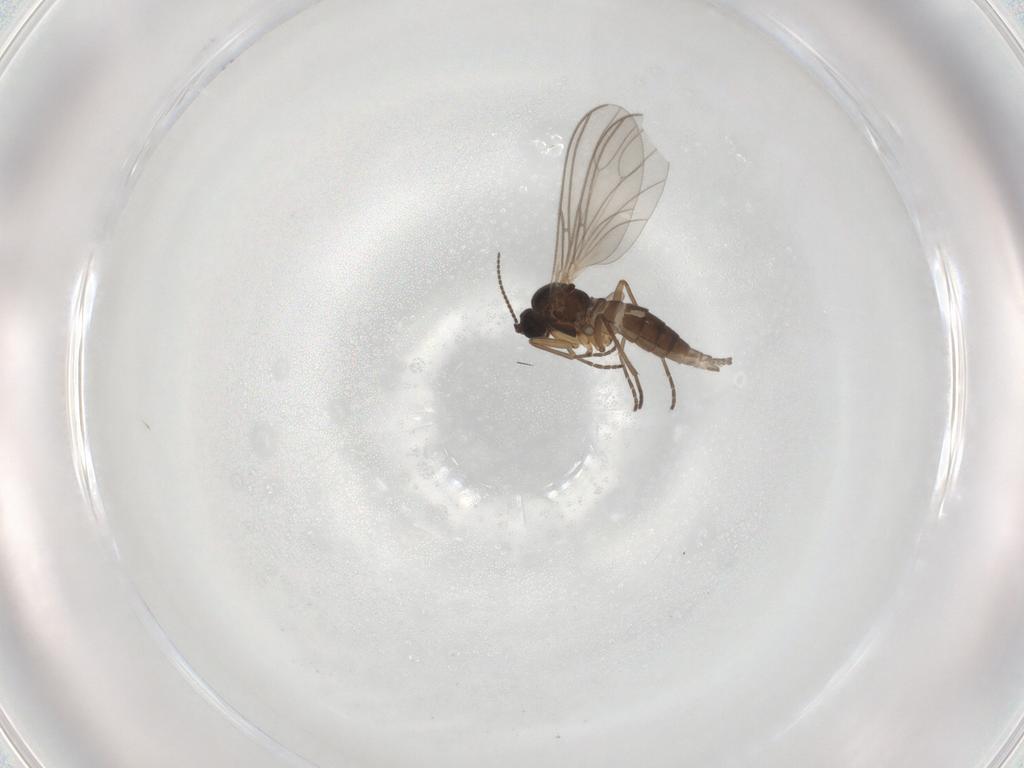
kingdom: Animalia
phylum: Arthropoda
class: Insecta
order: Diptera
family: Sciaridae
